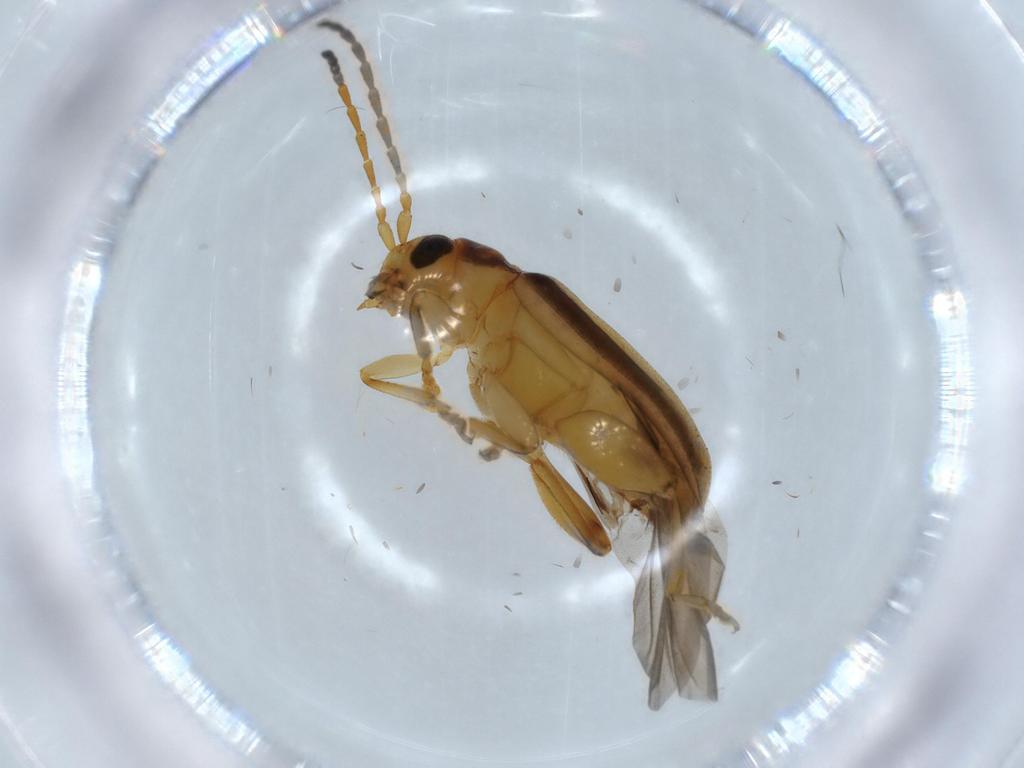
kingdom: Animalia
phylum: Arthropoda
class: Insecta
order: Coleoptera
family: Chrysomelidae
